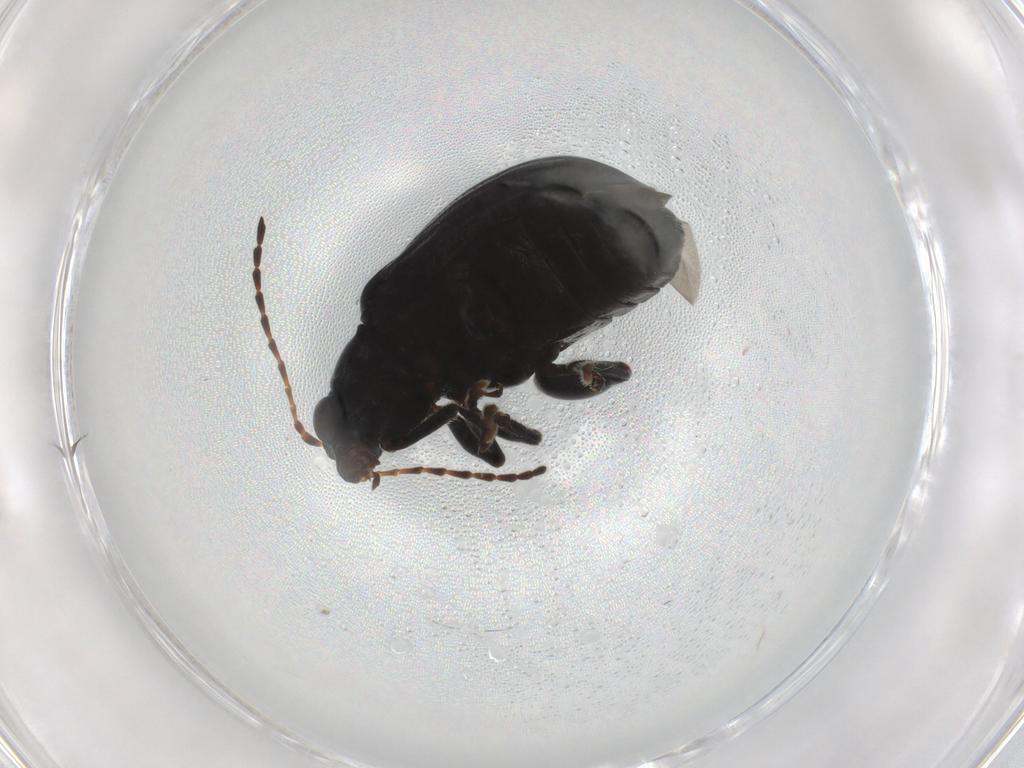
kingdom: Animalia
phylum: Arthropoda
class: Insecta
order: Coleoptera
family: Chrysomelidae
